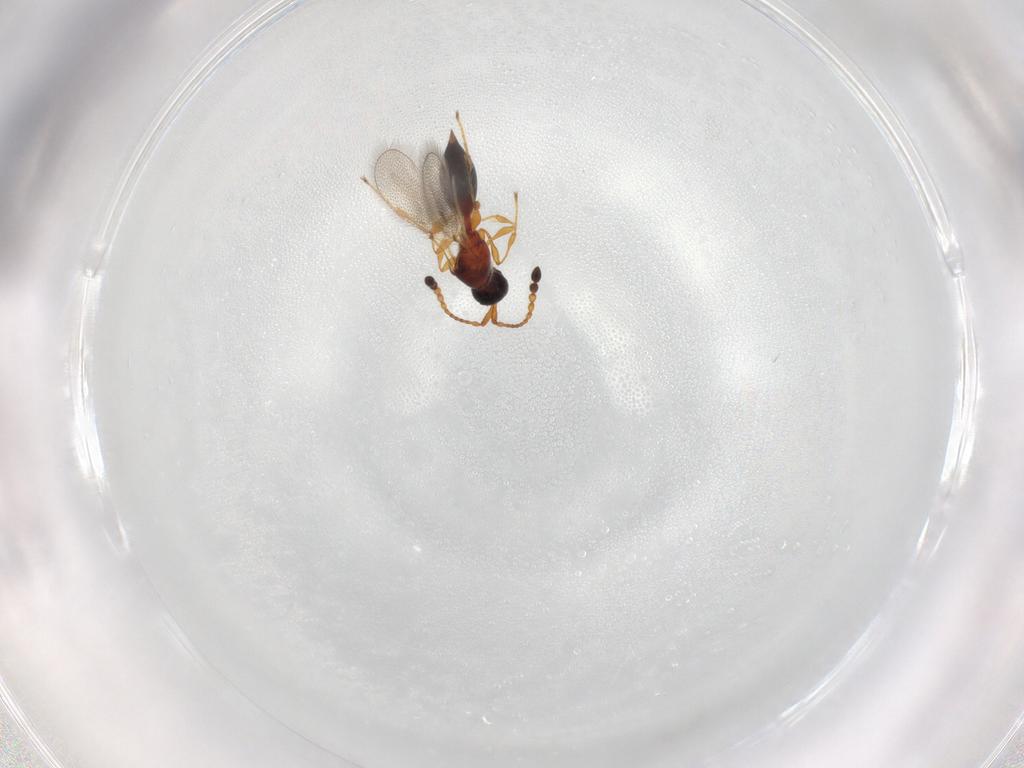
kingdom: Animalia
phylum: Arthropoda
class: Insecta
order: Hymenoptera
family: Diapriidae
